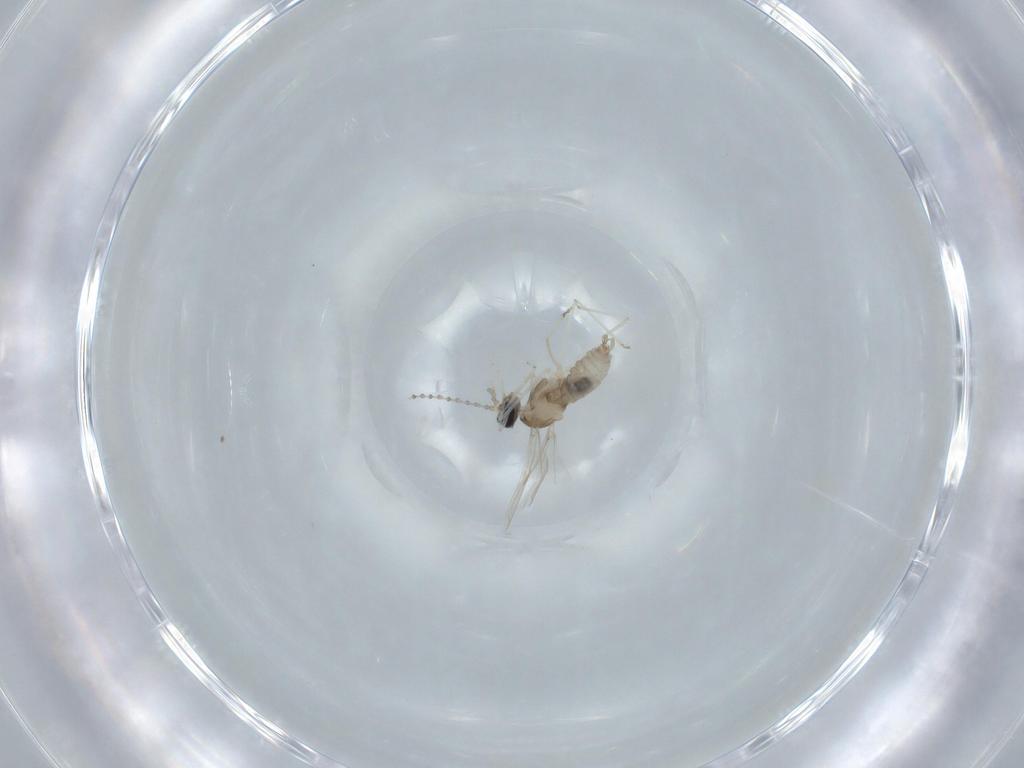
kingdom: Animalia
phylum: Arthropoda
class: Insecta
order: Diptera
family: Cecidomyiidae
